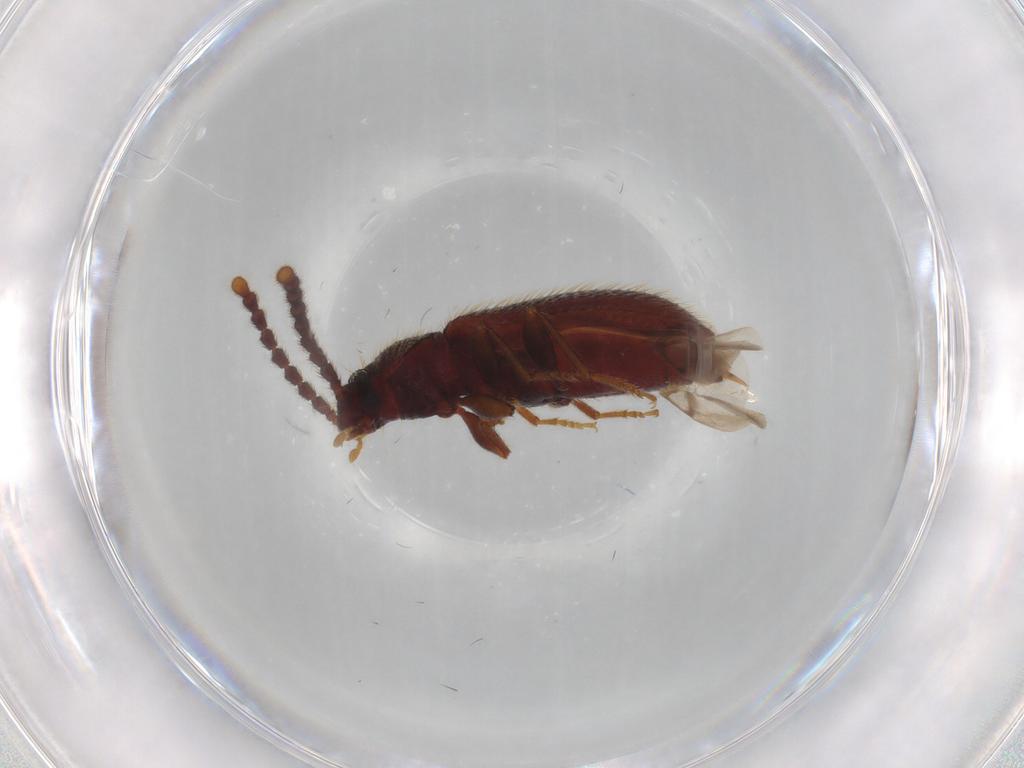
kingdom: Animalia
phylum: Arthropoda
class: Insecta
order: Coleoptera
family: Tenebrionidae
